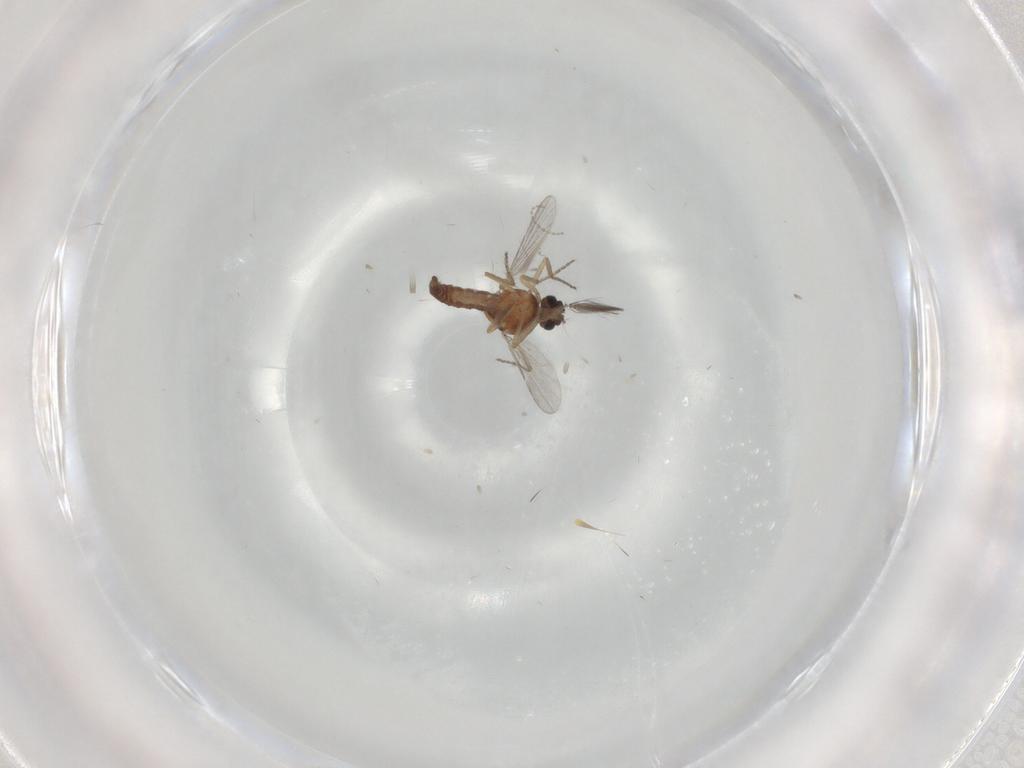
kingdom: Animalia
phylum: Arthropoda
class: Insecta
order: Diptera
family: Ceratopogonidae
